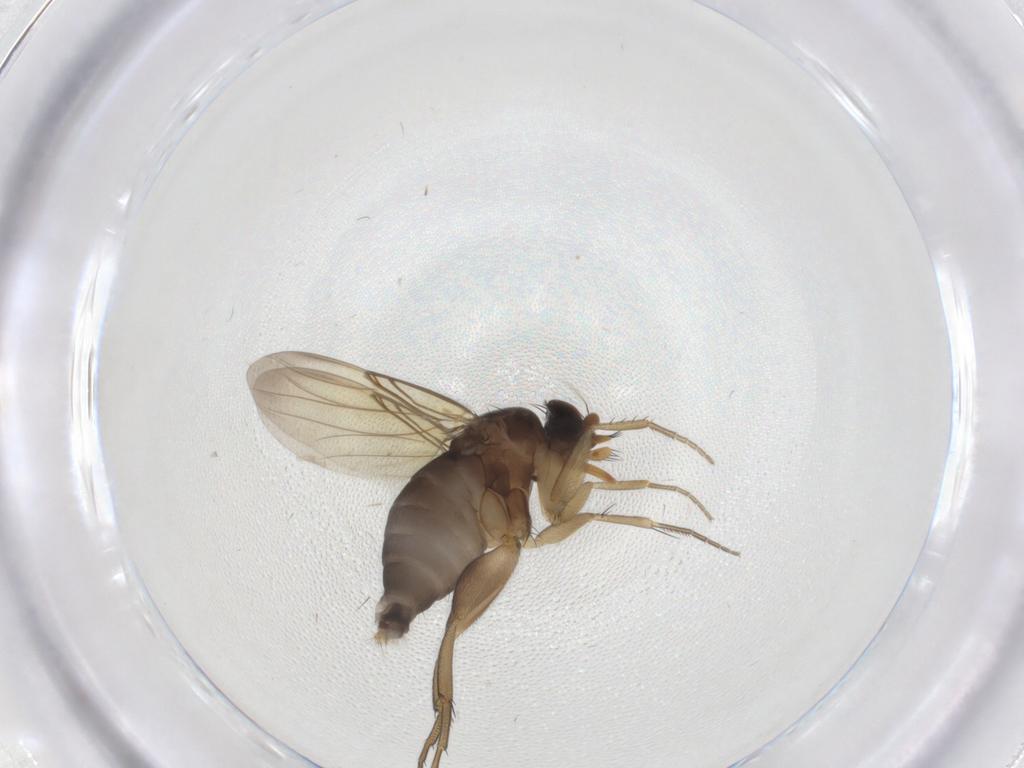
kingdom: Animalia
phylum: Arthropoda
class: Insecta
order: Diptera
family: Phoridae
